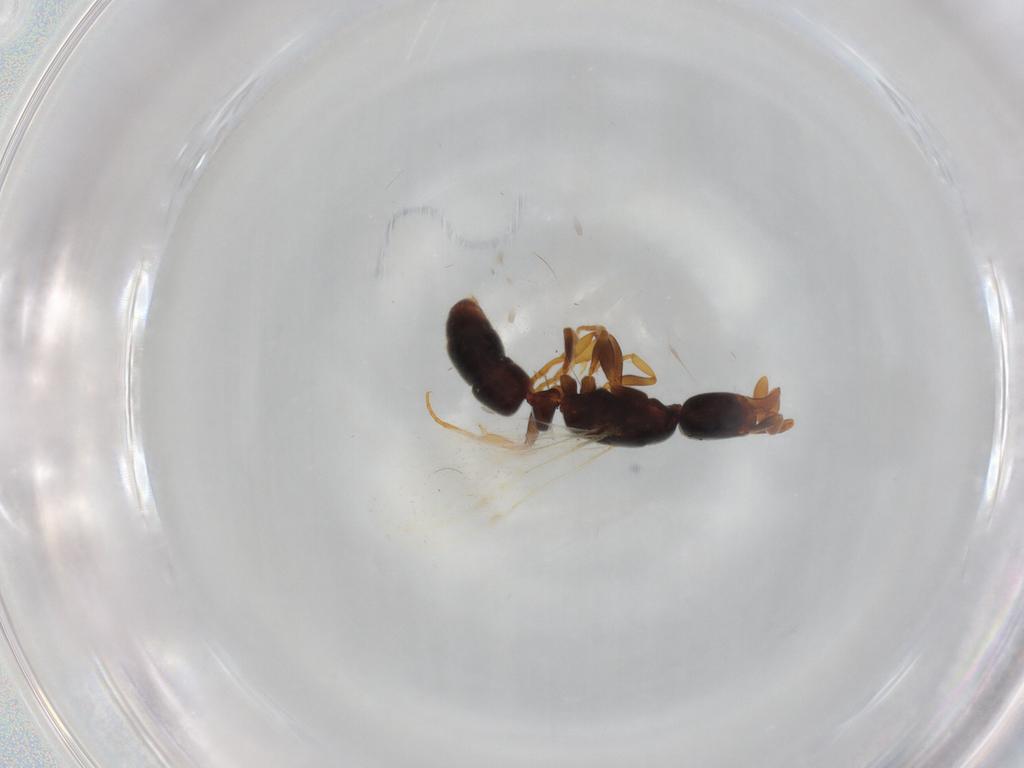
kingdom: Animalia
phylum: Arthropoda
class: Insecta
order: Hymenoptera
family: Formicidae
